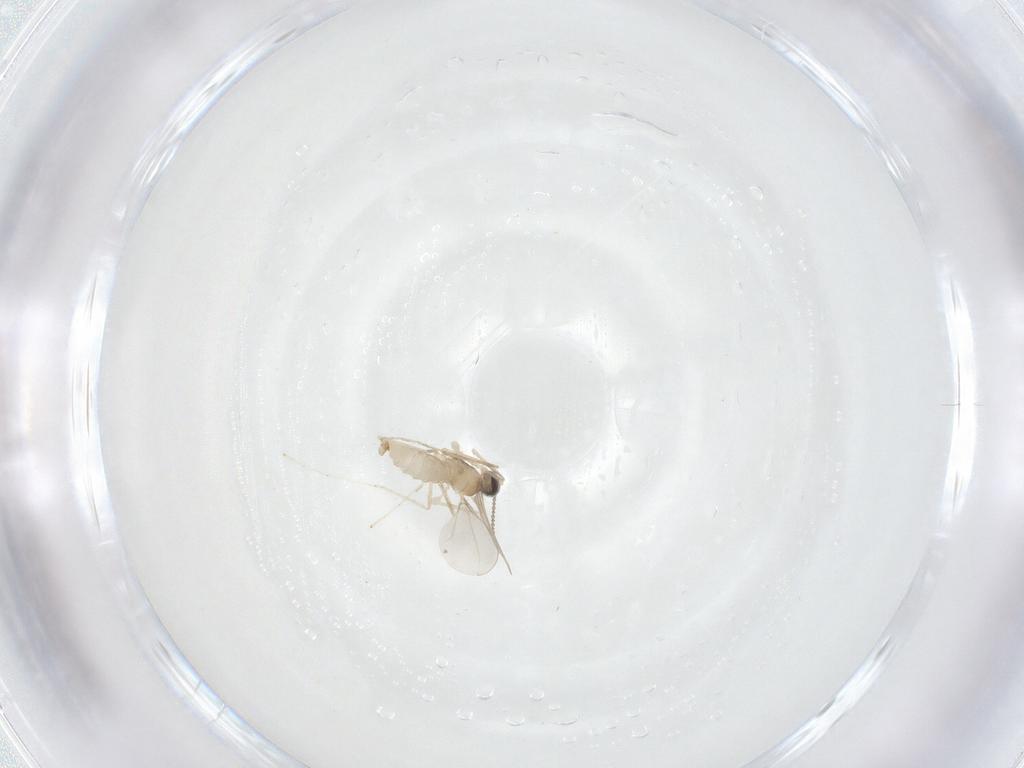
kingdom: Animalia
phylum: Arthropoda
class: Insecta
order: Diptera
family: Cecidomyiidae
